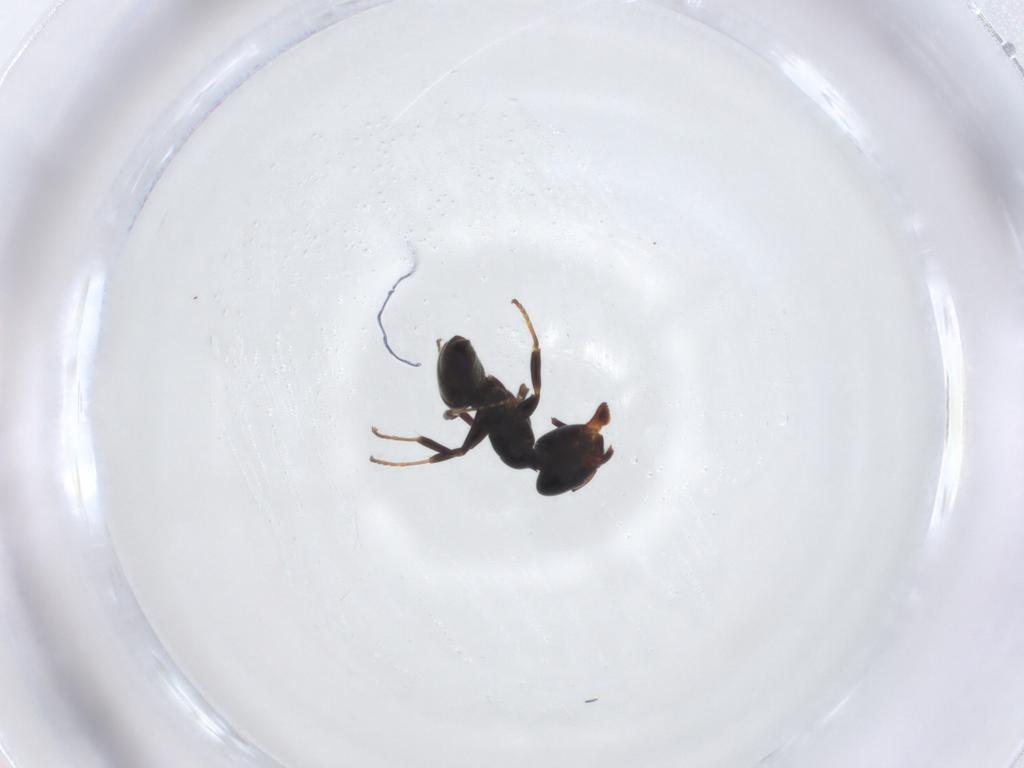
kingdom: Animalia
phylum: Arthropoda
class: Insecta
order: Hymenoptera
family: Formicidae
